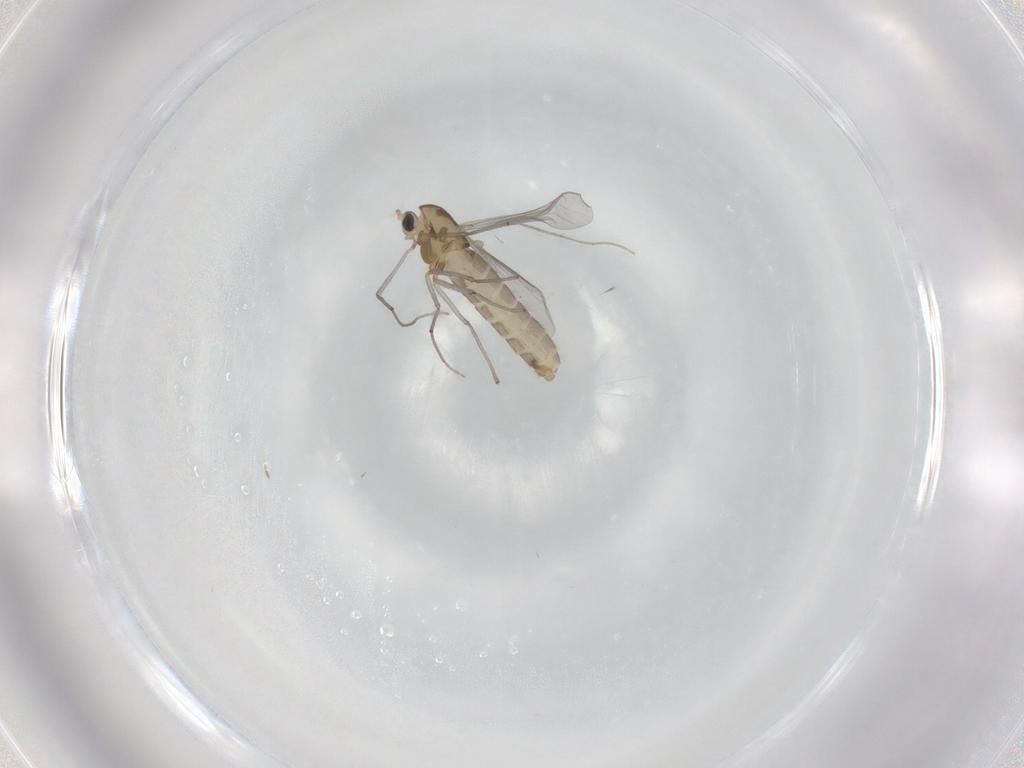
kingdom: Animalia
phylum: Arthropoda
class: Insecta
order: Diptera
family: Chironomidae
